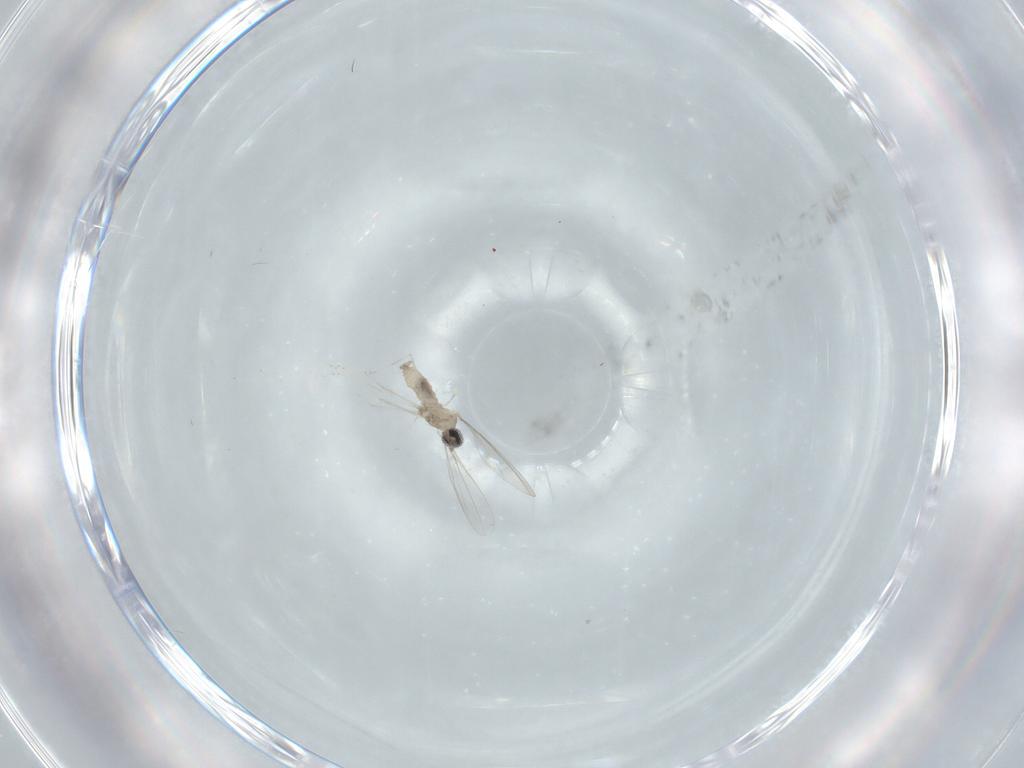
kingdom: Animalia
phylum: Arthropoda
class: Insecta
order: Diptera
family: Cecidomyiidae
